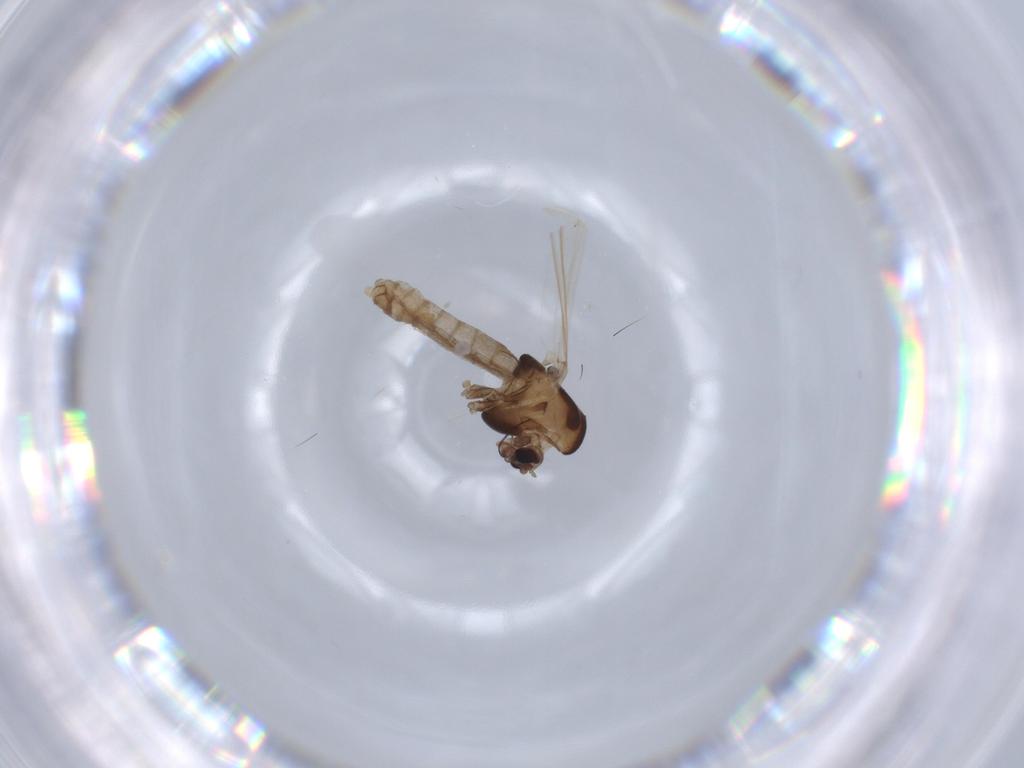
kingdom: Animalia
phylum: Arthropoda
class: Insecta
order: Diptera
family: Chironomidae
